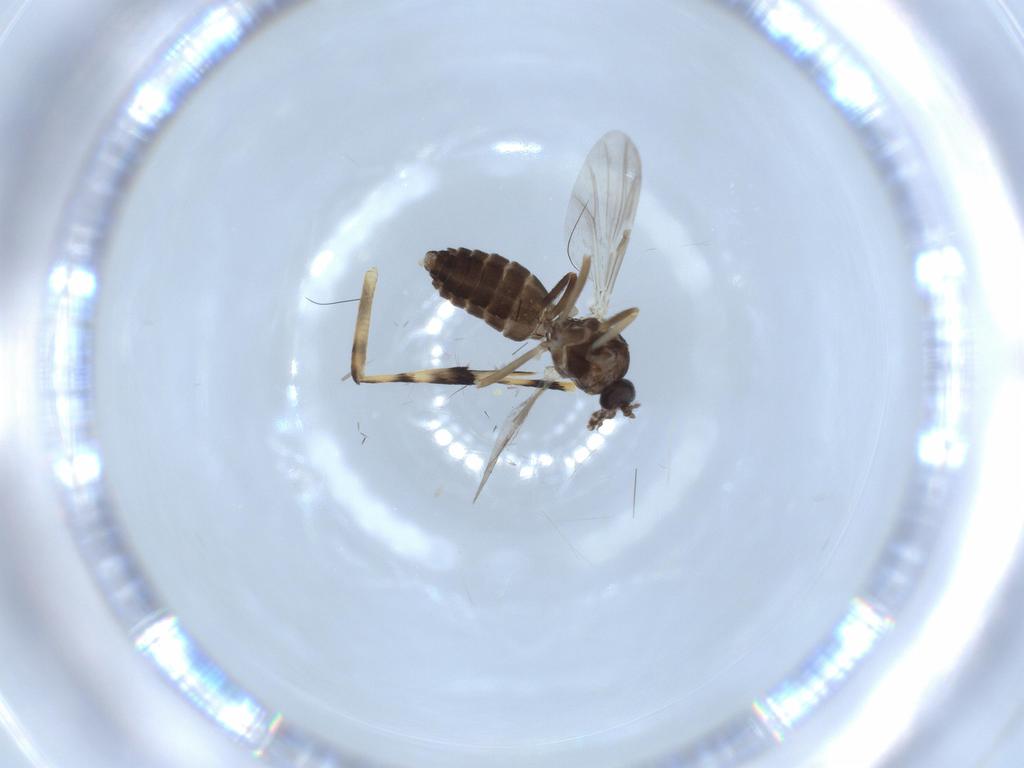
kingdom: Animalia
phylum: Arthropoda
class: Insecta
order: Diptera
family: Ceratopogonidae
